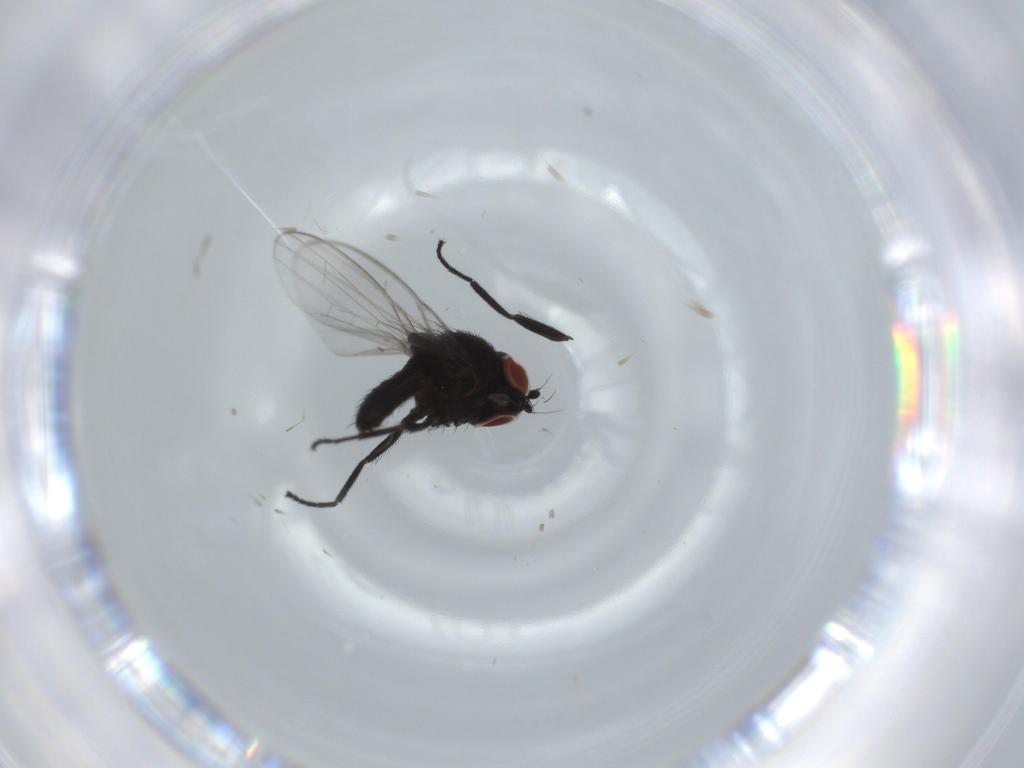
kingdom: Animalia
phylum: Arthropoda
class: Insecta
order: Diptera
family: Milichiidae
